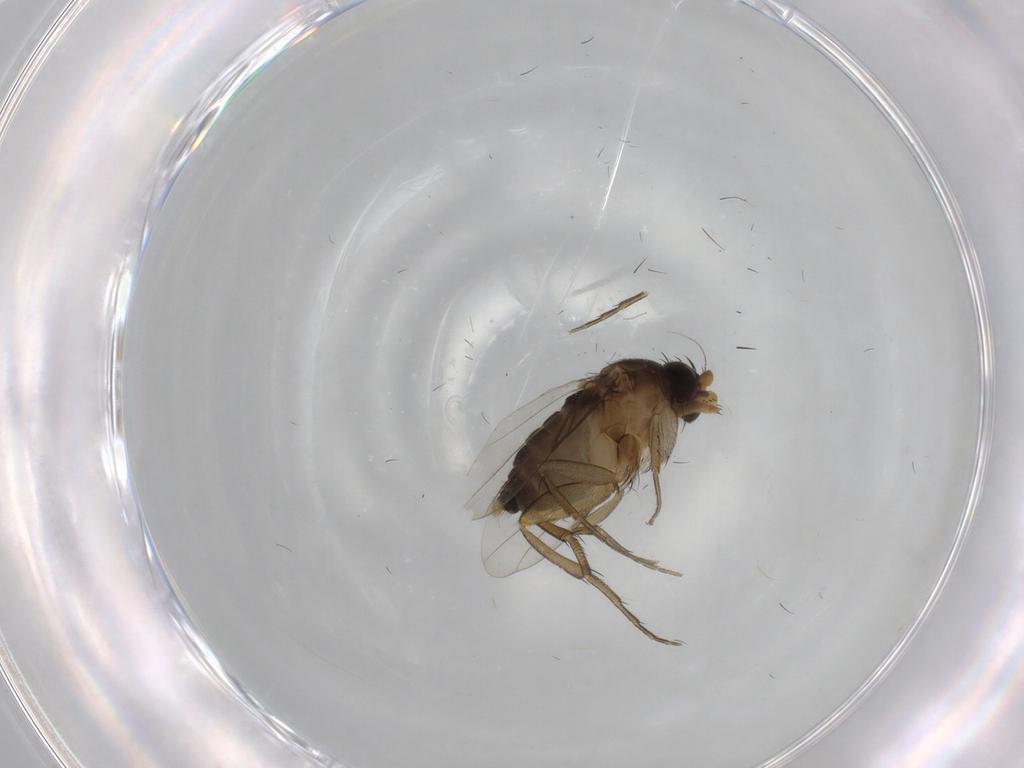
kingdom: Animalia
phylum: Arthropoda
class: Insecta
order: Diptera
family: Phoridae
